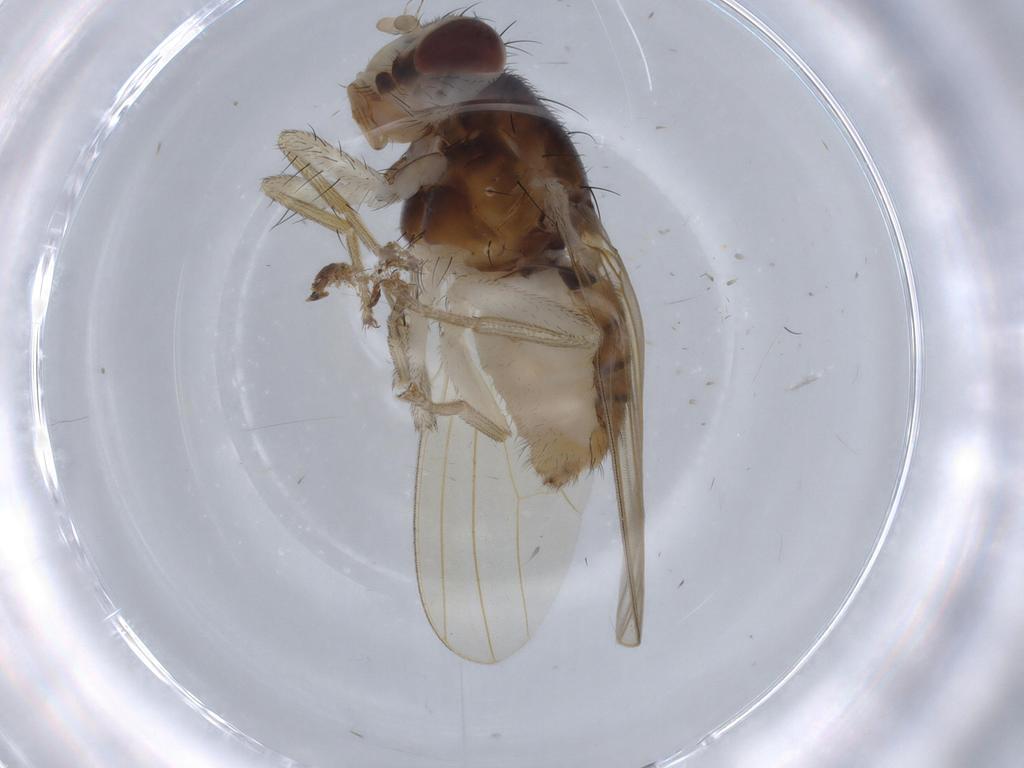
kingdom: Animalia
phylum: Arthropoda
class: Insecta
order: Diptera
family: Lauxaniidae
